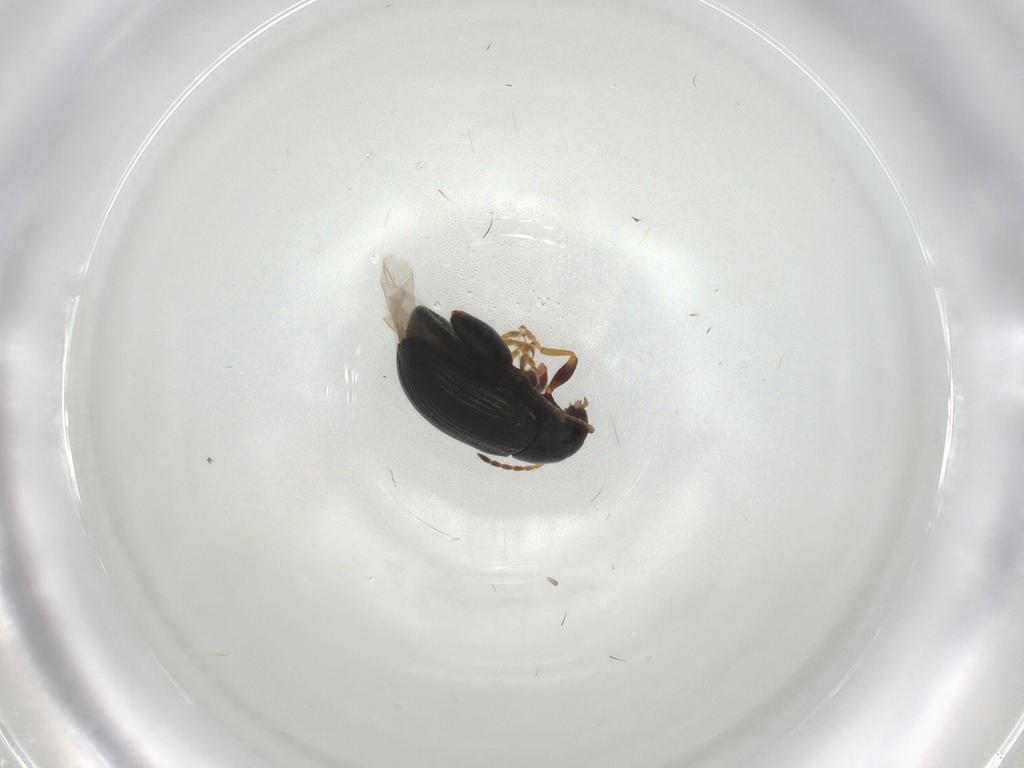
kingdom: Animalia
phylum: Arthropoda
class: Insecta
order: Coleoptera
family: Chrysomelidae
